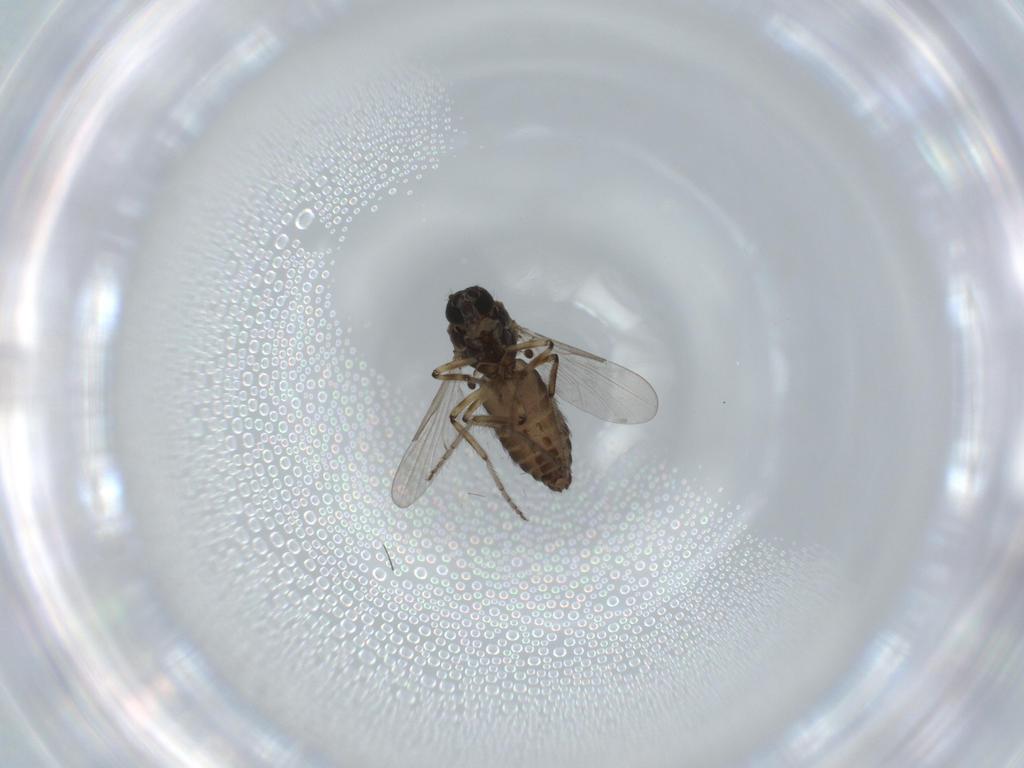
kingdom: Animalia
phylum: Arthropoda
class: Insecta
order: Diptera
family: Ceratopogonidae
